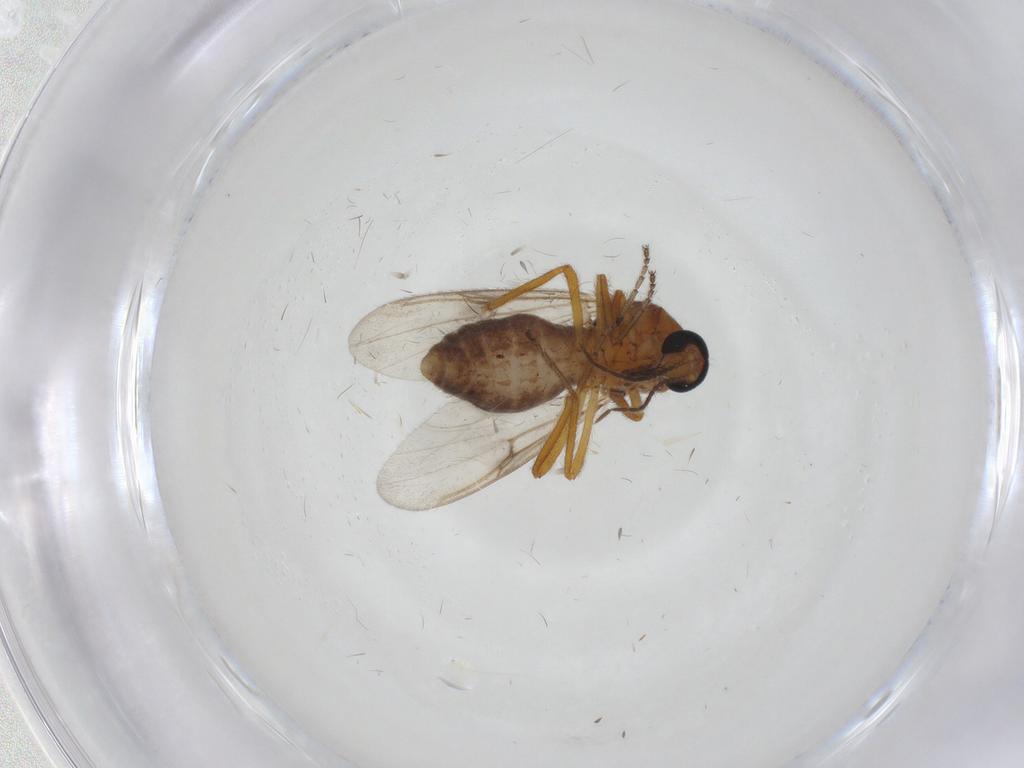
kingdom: Animalia
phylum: Arthropoda
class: Insecta
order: Diptera
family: Ceratopogonidae
